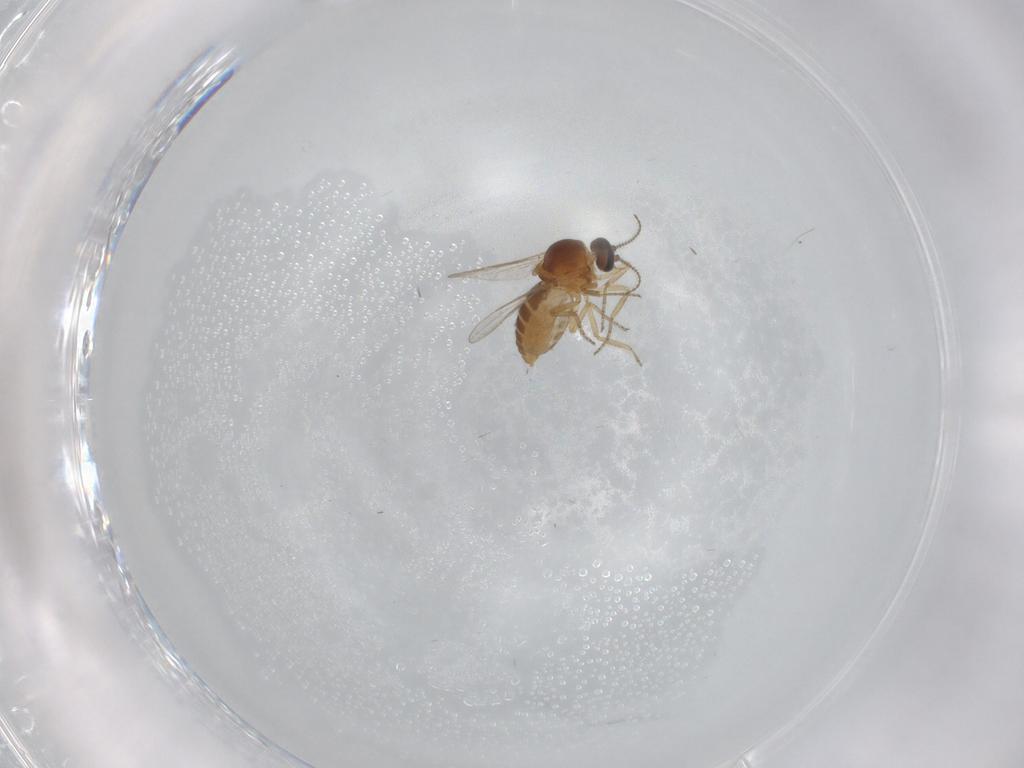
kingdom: Animalia
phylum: Arthropoda
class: Insecta
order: Diptera
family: Ceratopogonidae
